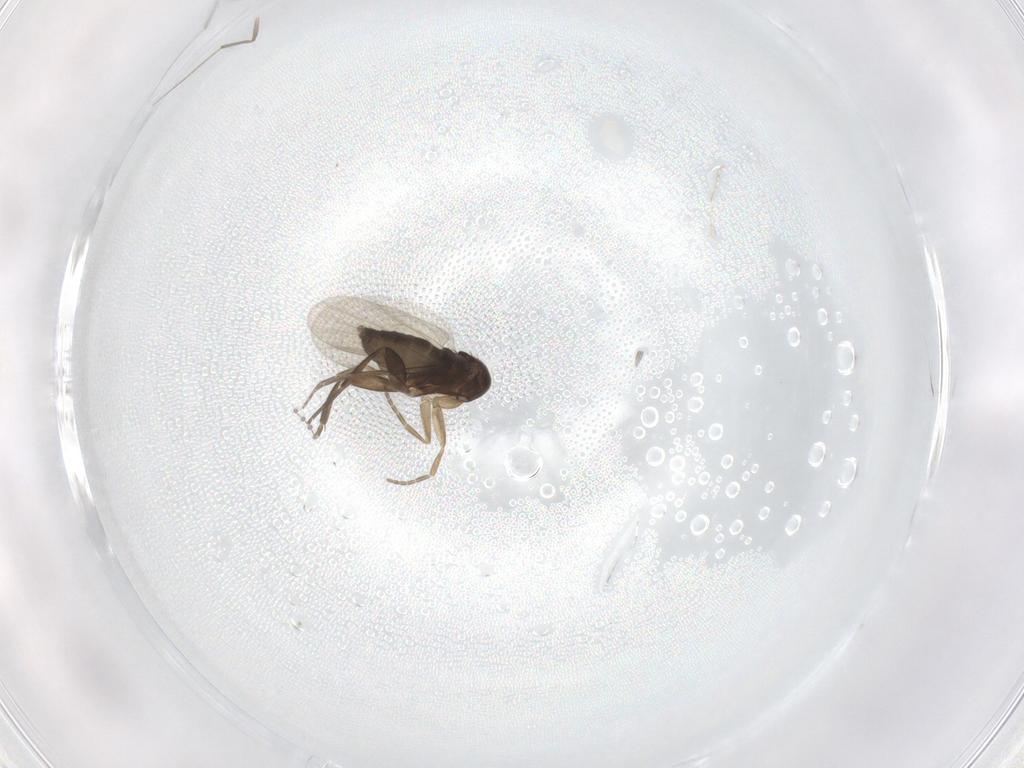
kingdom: Animalia
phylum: Arthropoda
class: Insecta
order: Diptera
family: Phoridae
